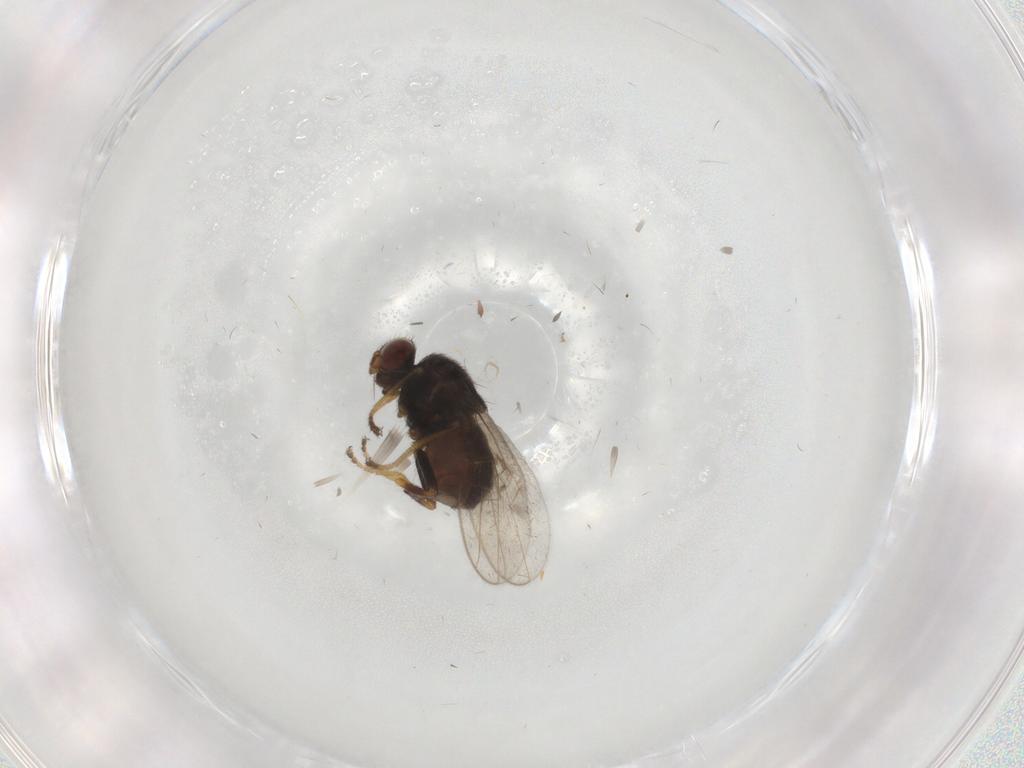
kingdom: Animalia
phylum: Arthropoda
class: Insecta
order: Diptera
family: Cecidomyiidae
